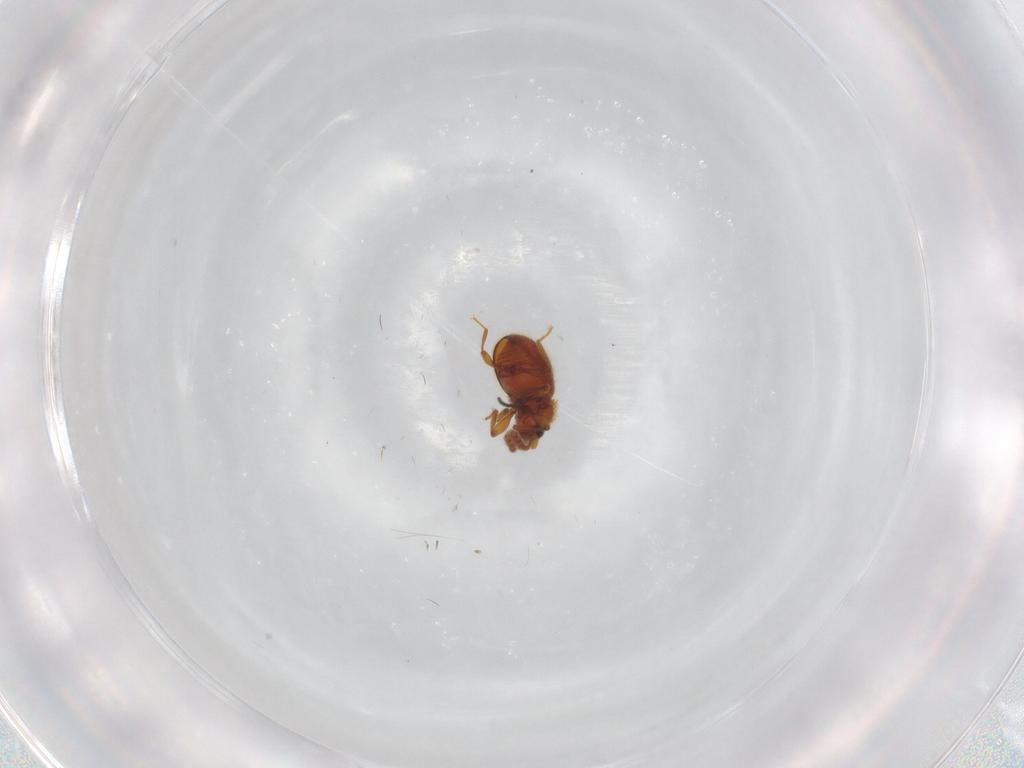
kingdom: Animalia
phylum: Arthropoda
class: Insecta
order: Coleoptera
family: Staphylinidae
